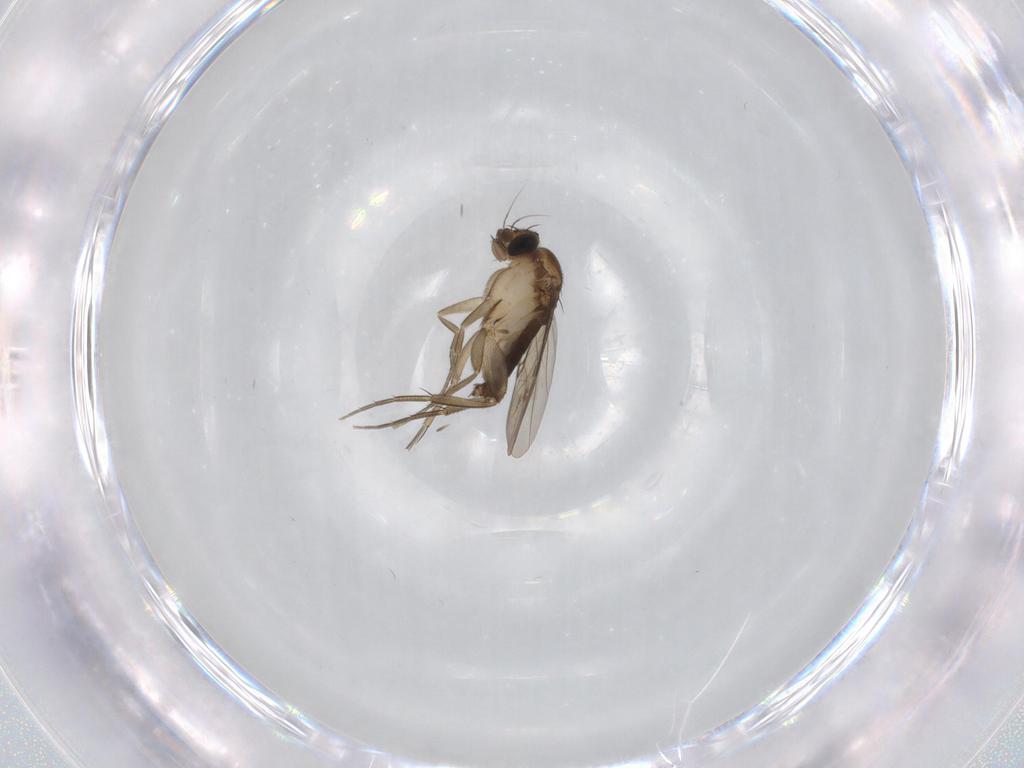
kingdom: Animalia
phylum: Arthropoda
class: Insecta
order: Diptera
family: Phoridae
